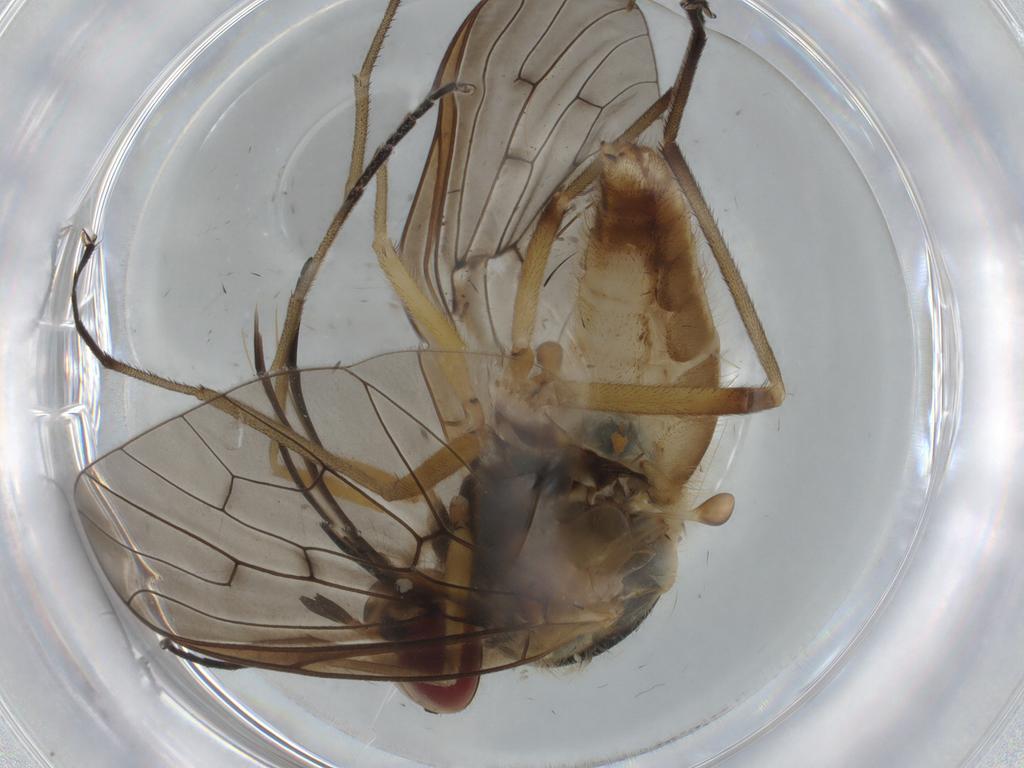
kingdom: Animalia
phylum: Arthropoda
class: Insecta
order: Diptera
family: Bombyliidae
